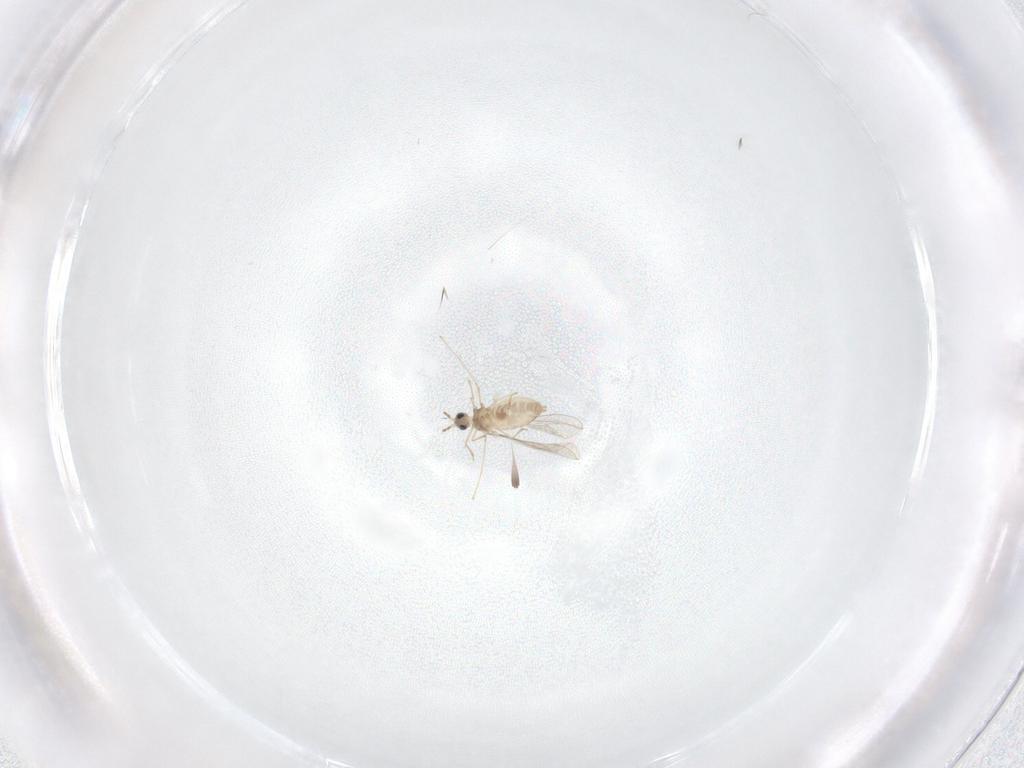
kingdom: Animalia
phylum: Arthropoda
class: Insecta
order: Diptera
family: Cecidomyiidae
